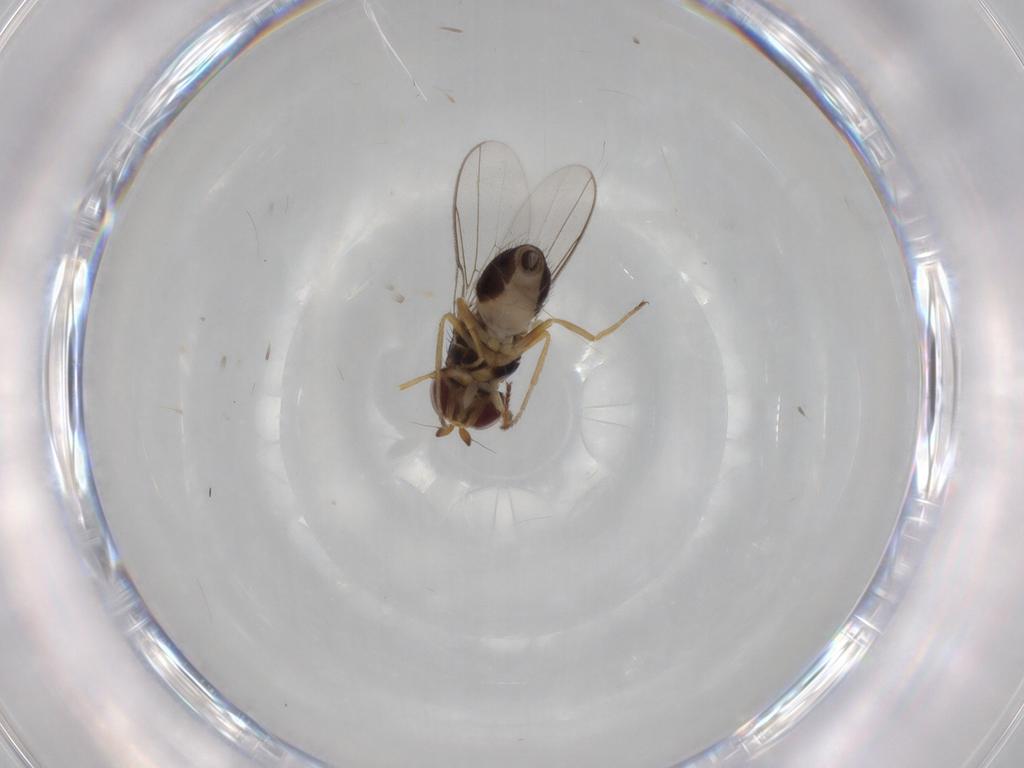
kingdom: Animalia
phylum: Arthropoda
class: Insecta
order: Diptera
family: Chloropidae
